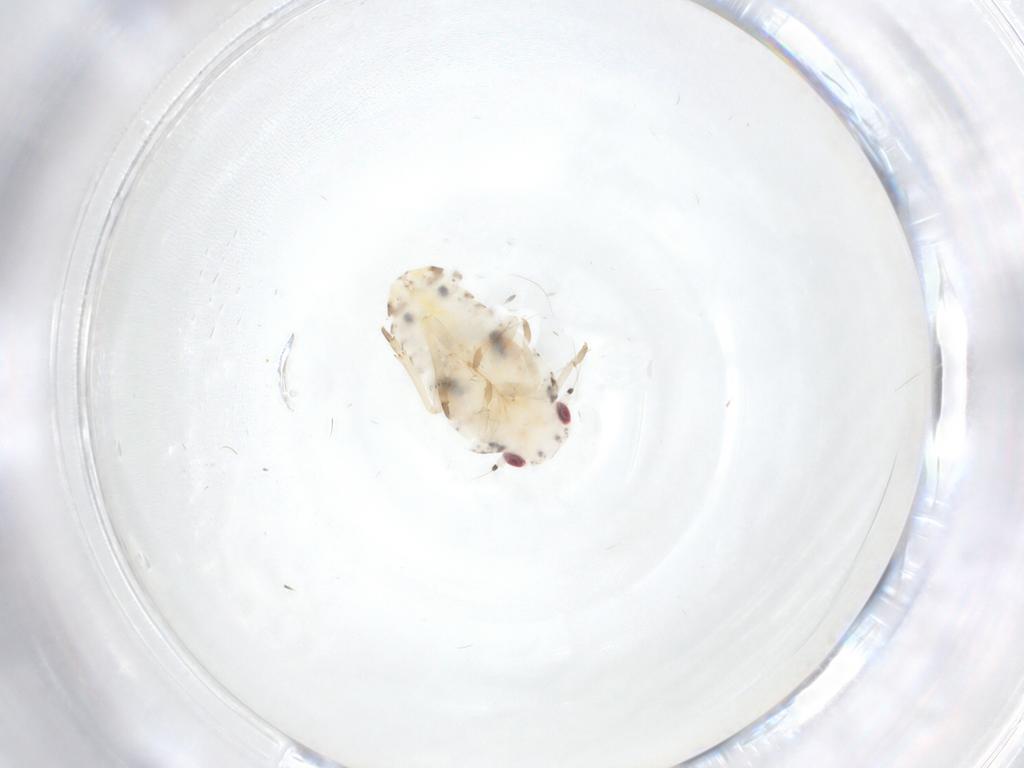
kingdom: Animalia
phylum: Arthropoda
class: Insecta
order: Hemiptera
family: Flatidae
